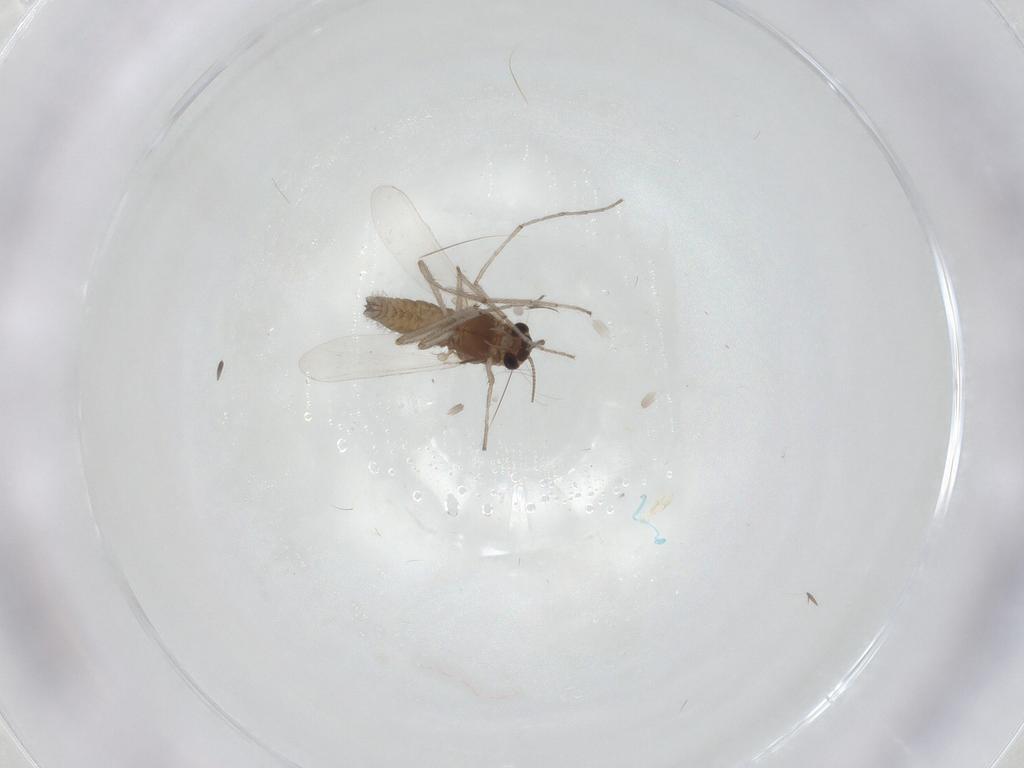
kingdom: Animalia
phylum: Arthropoda
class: Insecta
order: Diptera
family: Chironomidae
